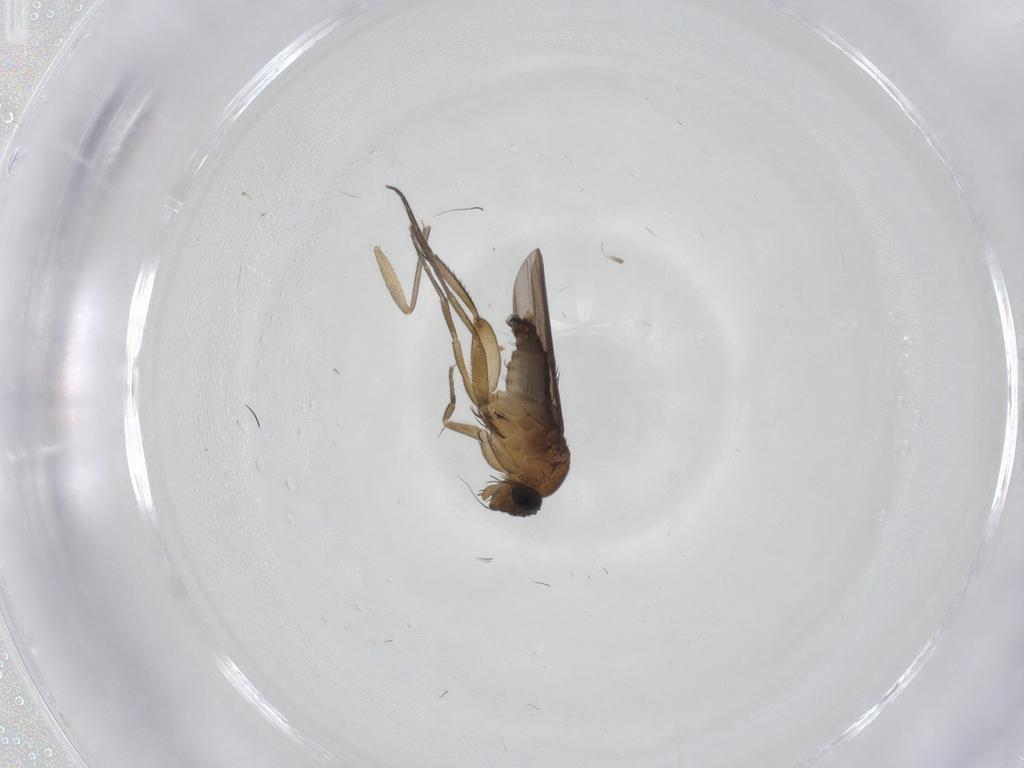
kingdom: Animalia
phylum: Arthropoda
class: Insecta
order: Diptera
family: Phoridae
